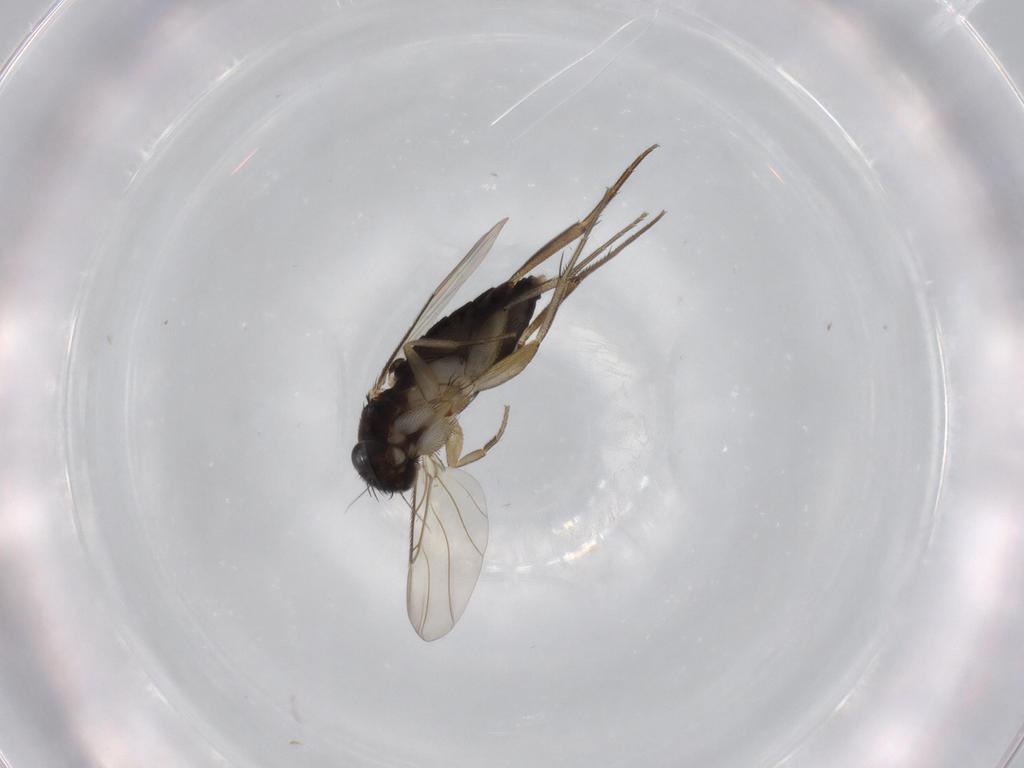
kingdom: Animalia
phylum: Arthropoda
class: Insecta
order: Diptera
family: Phoridae
